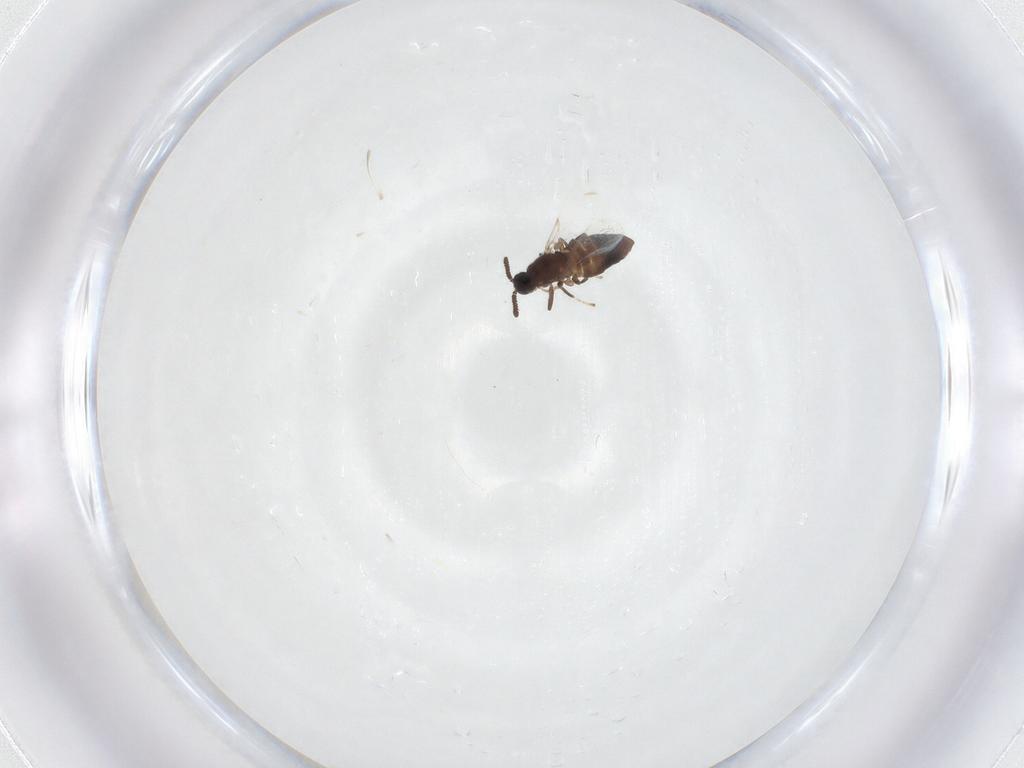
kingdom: Animalia
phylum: Arthropoda
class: Insecta
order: Diptera
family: Scatopsidae
